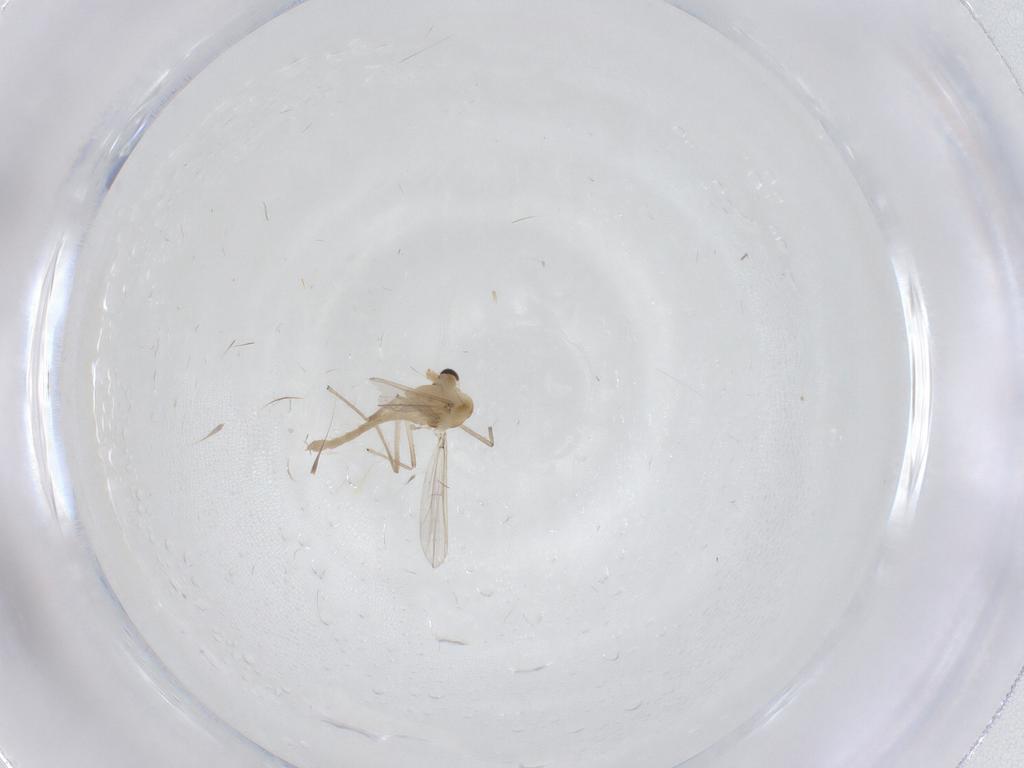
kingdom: Animalia
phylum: Arthropoda
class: Insecta
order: Diptera
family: Chironomidae
